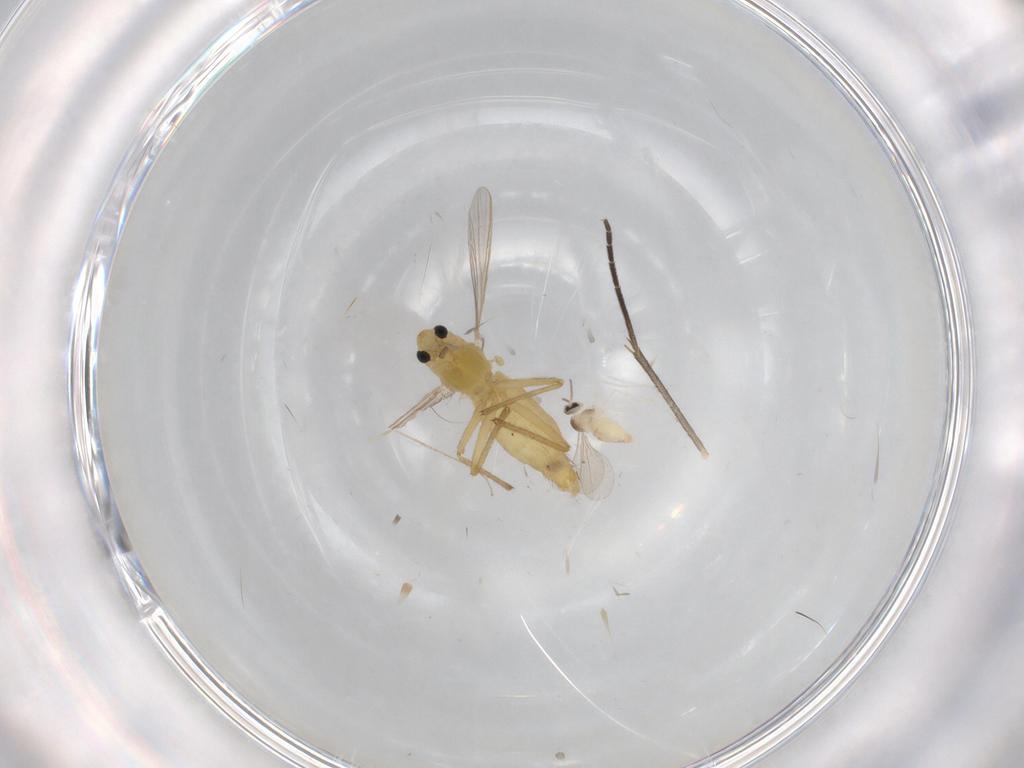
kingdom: Animalia
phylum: Arthropoda
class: Insecta
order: Diptera
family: Chironomidae
